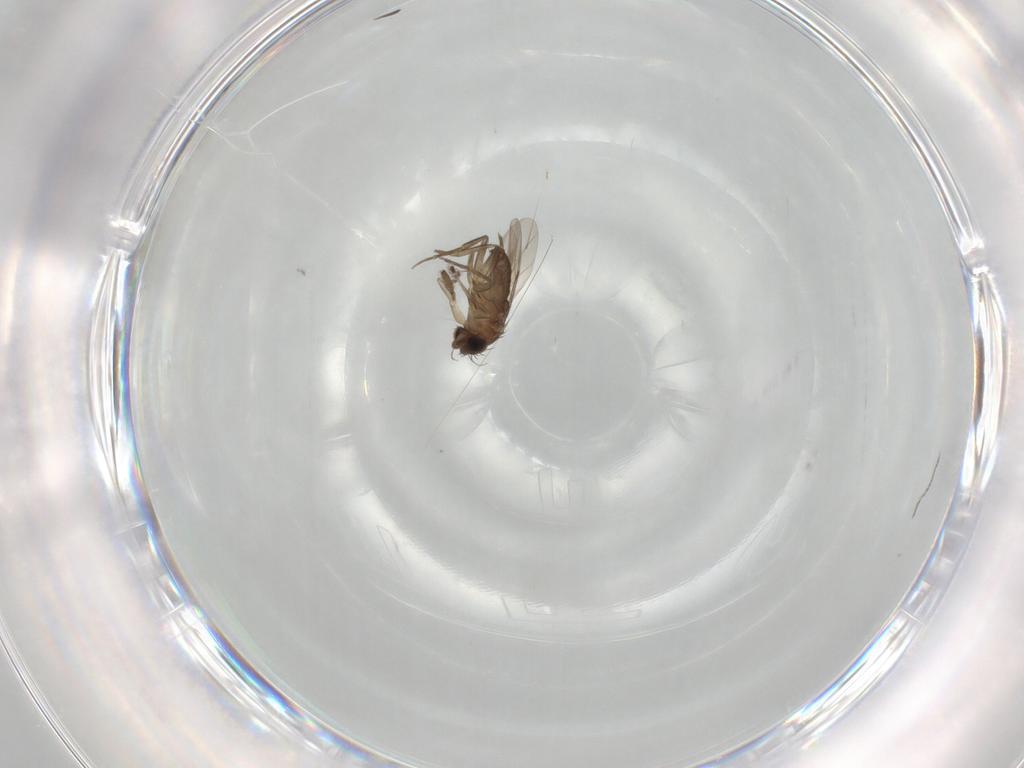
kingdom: Animalia
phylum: Arthropoda
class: Insecta
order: Diptera
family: Phoridae
